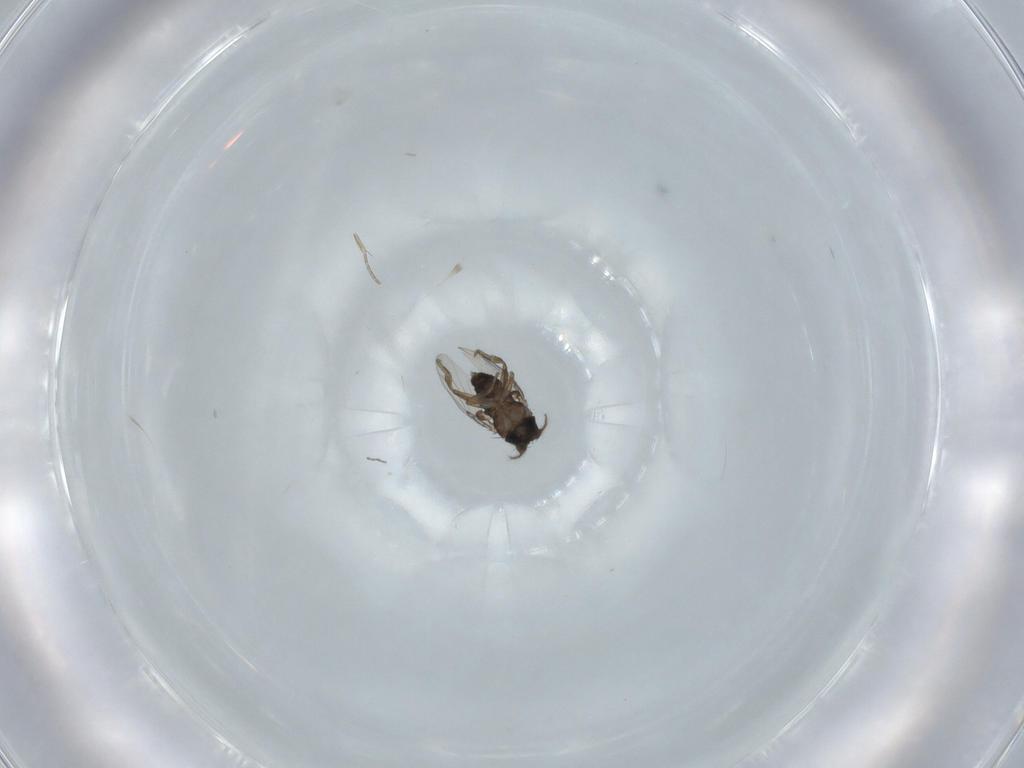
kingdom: Animalia
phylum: Arthropoda
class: Insecta
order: Diptera
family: Phoridae
